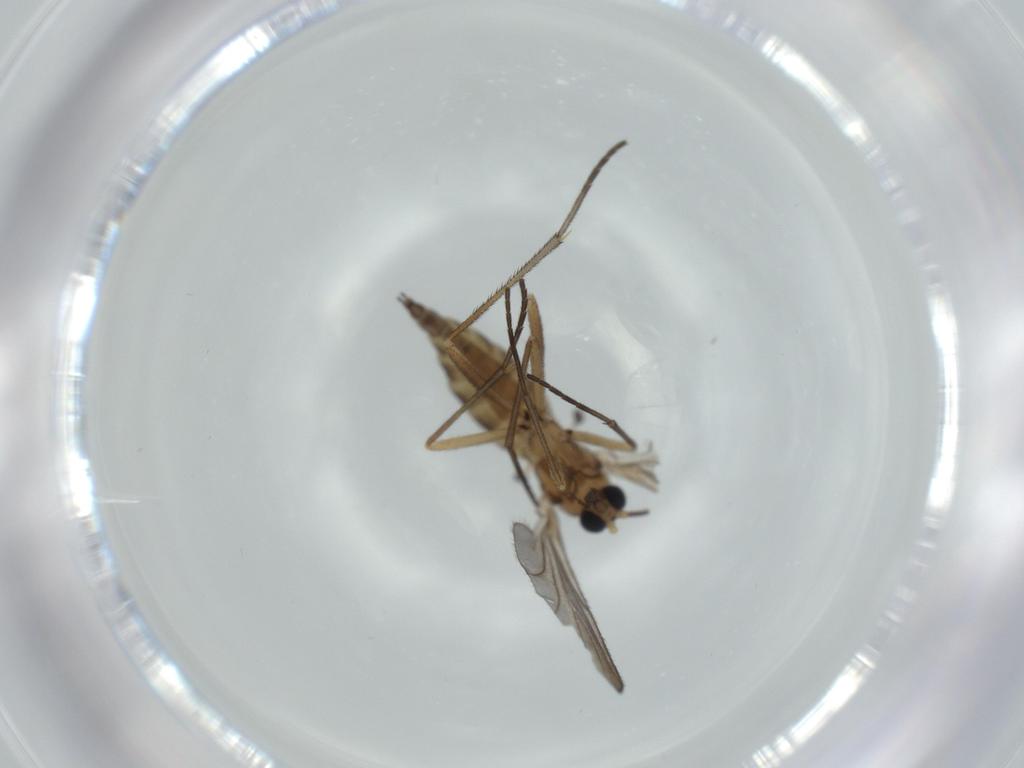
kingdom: Animalia
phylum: Arthropoda
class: Insecta
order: Diptera
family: Sciaridae
